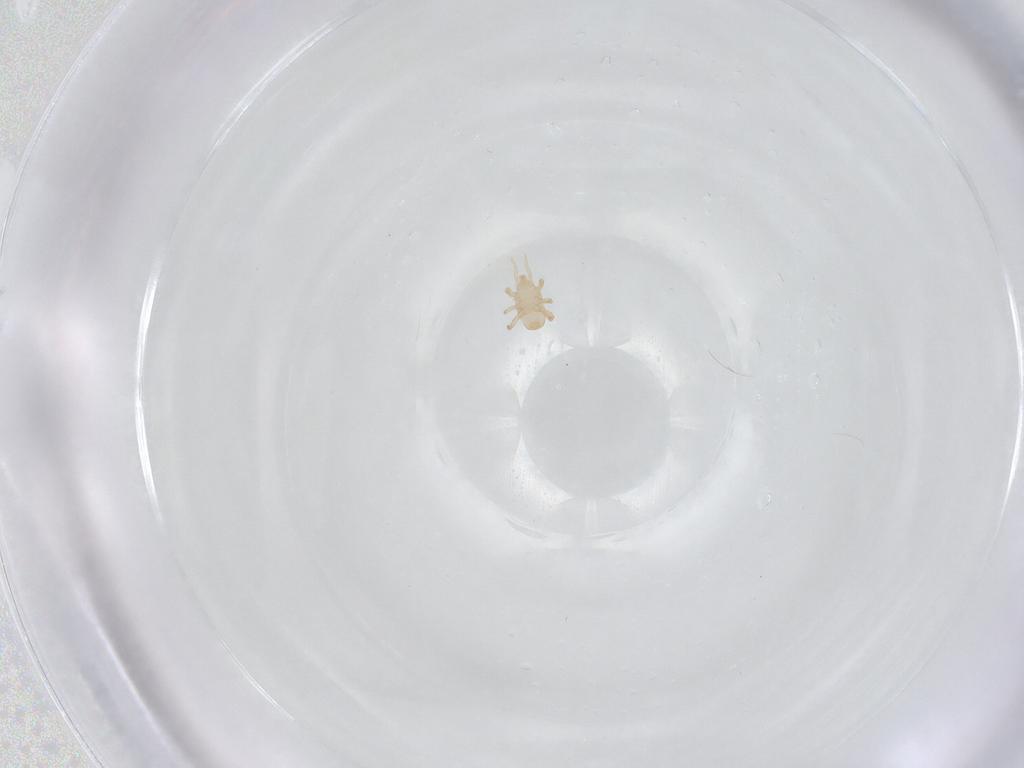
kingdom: Animalia
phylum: Arthropoda
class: Arachnida
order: Mesostigmata
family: Halolaelapidae
